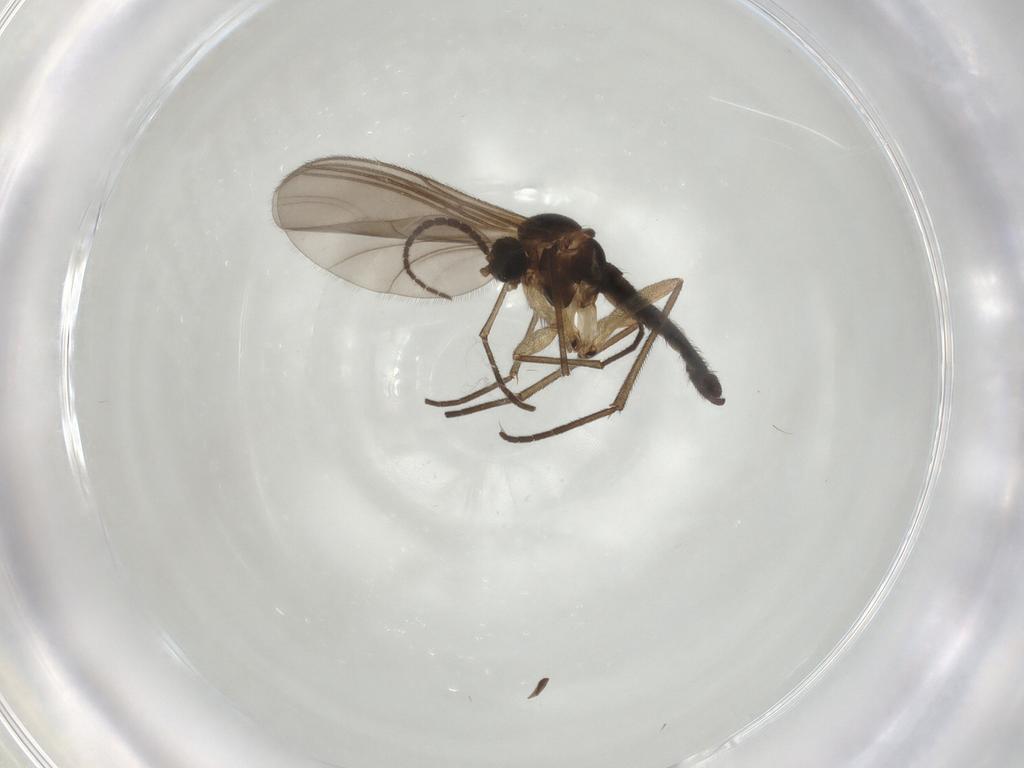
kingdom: Animalia
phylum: Arthropoda
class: Insecta
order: Diptera
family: Sciaridae
